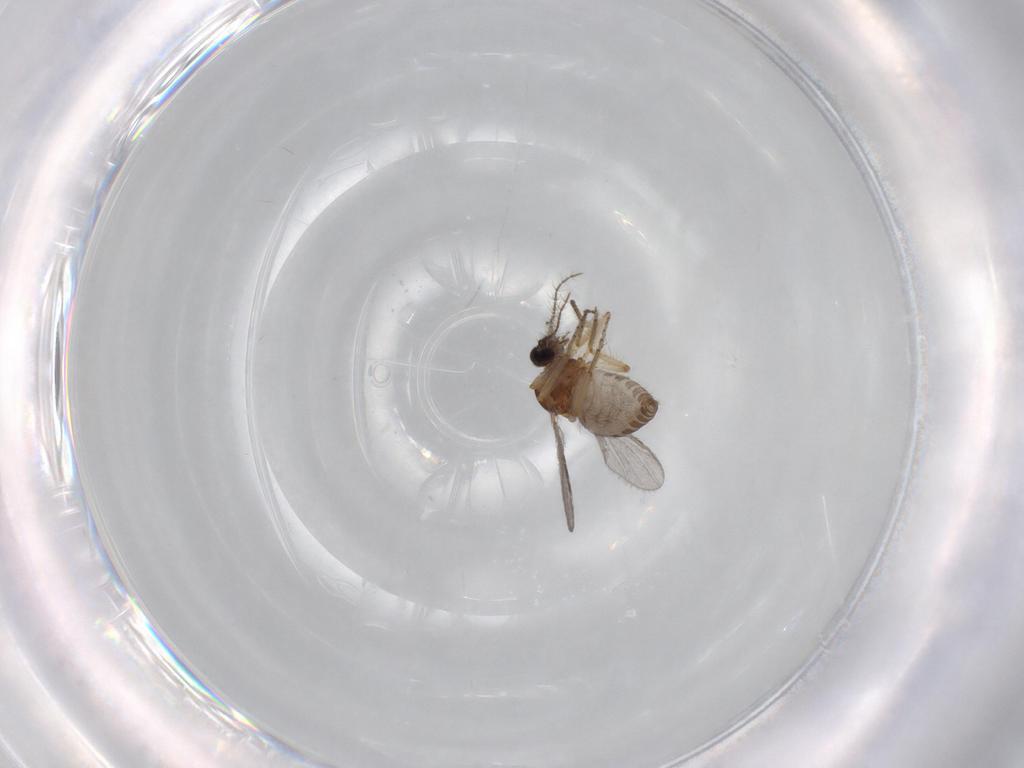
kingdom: Animalia
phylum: Arthropoda
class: Insecta
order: Diptera
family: Ceratopogonidae
